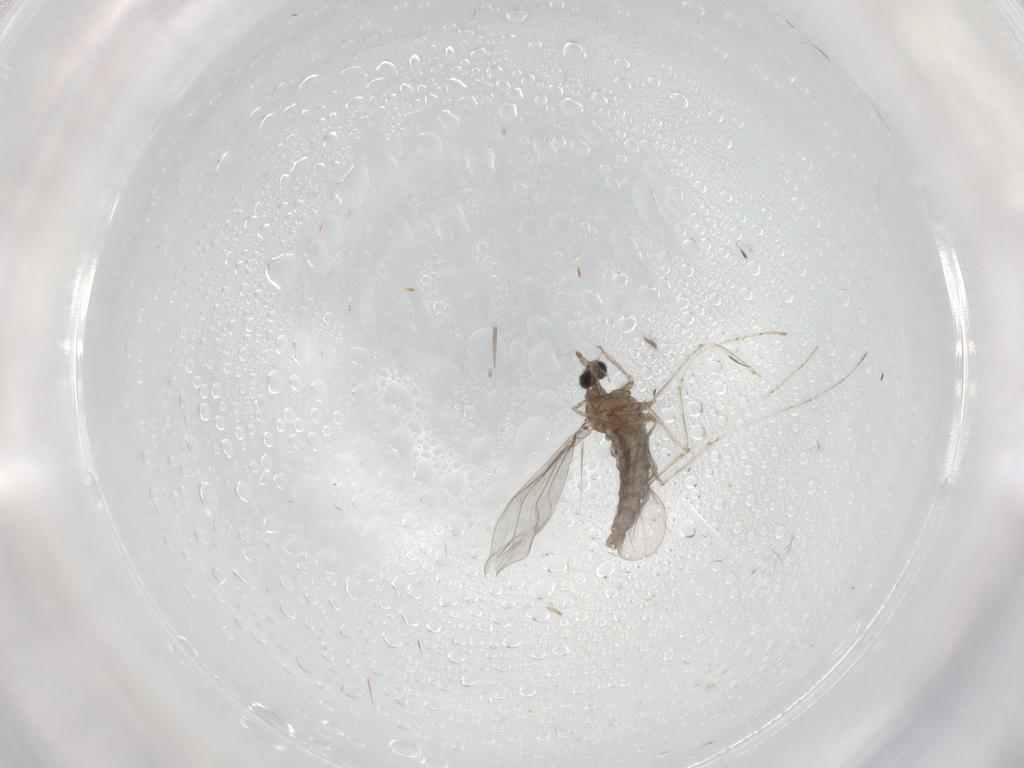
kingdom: Animalia
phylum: Arthropoda
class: Insecta
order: Diptera
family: Cecidomyiidae
